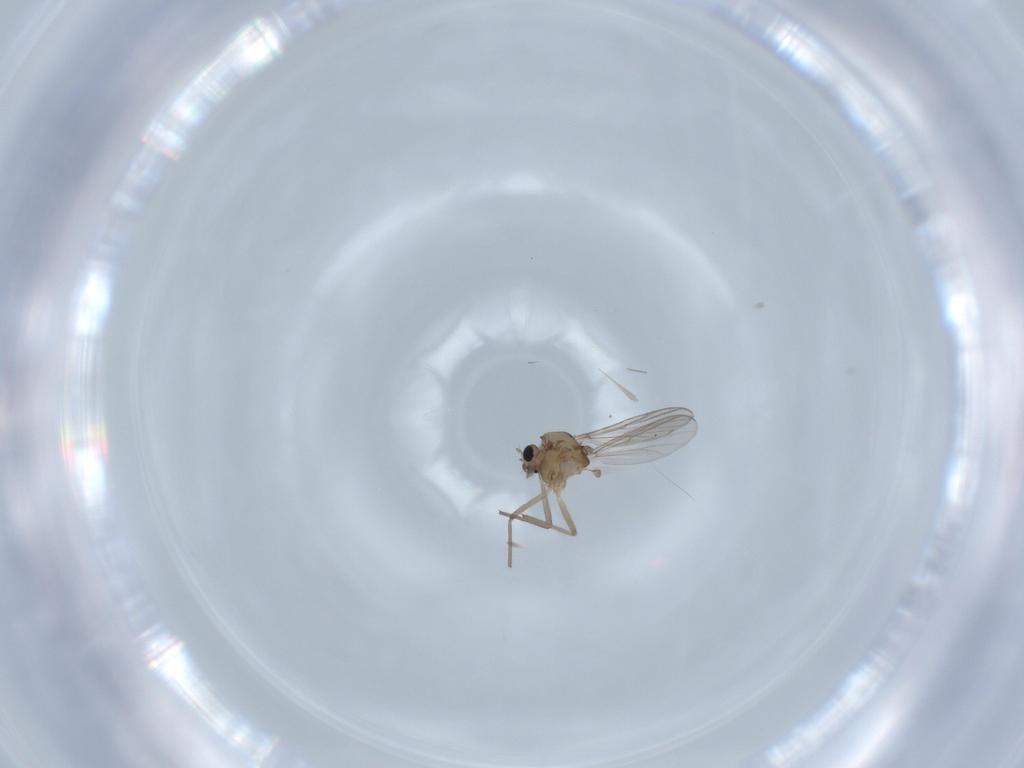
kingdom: Animalia
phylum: Arthropoda
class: Insecta
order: Diptera
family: Chironomidae
